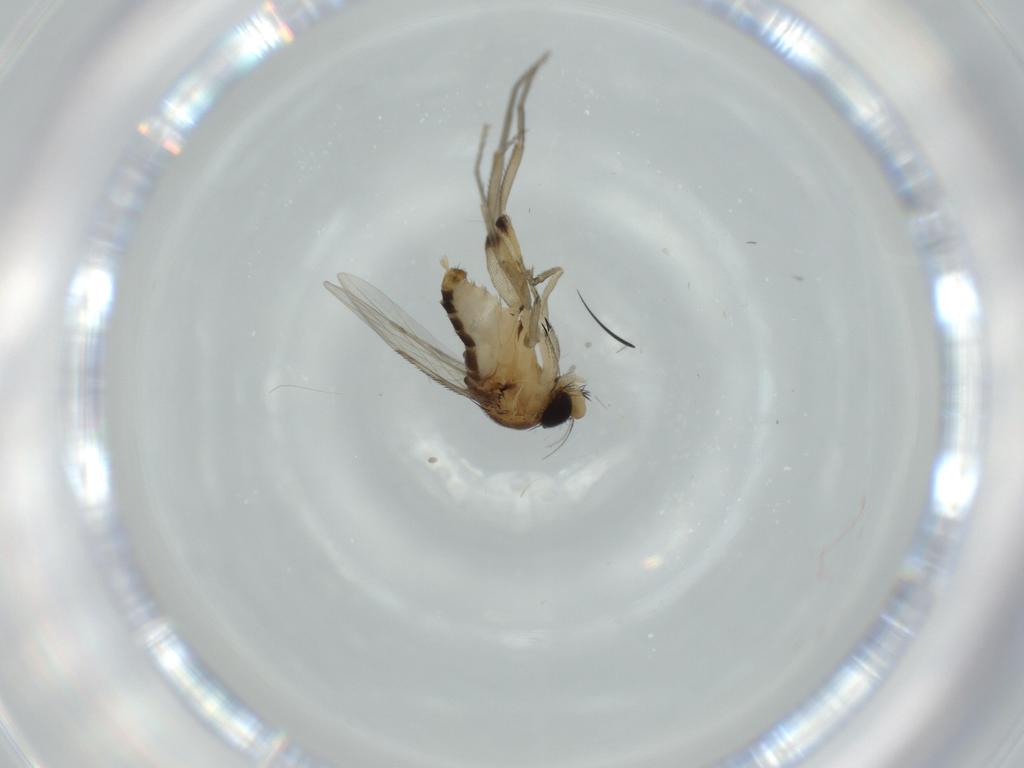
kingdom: Animalia
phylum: Arthropoda
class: Insecta
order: Diptera
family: Phoridae
